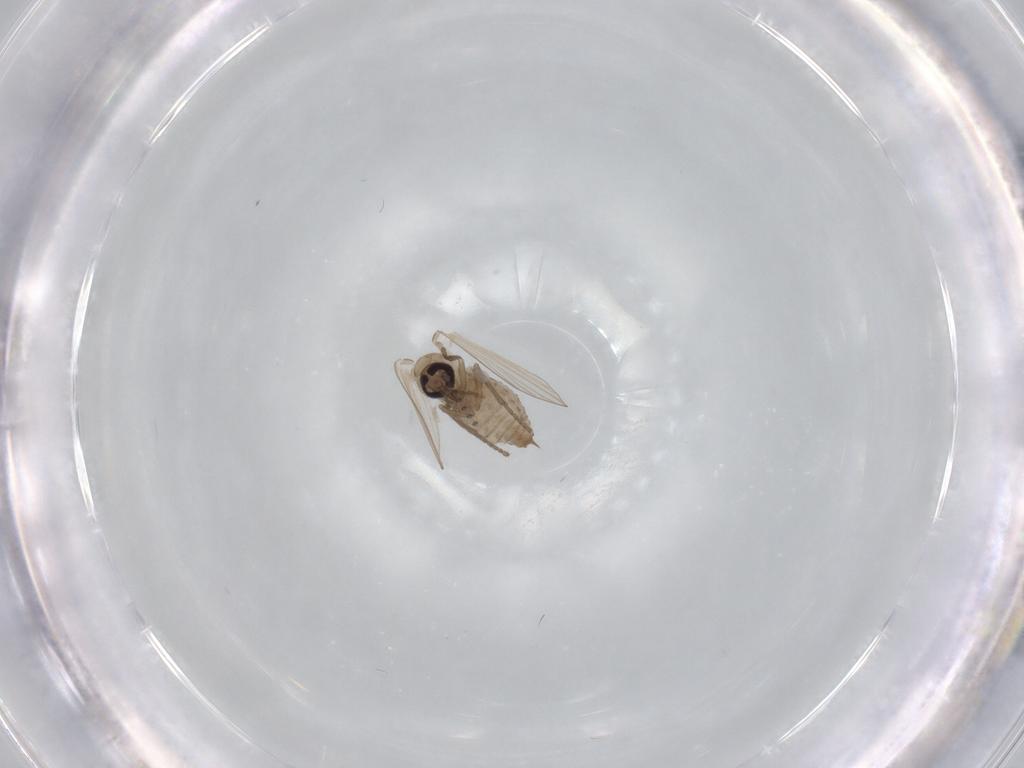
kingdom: Animalia
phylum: Arthropoda
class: Insecta
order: Diptera
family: Psychodidae
